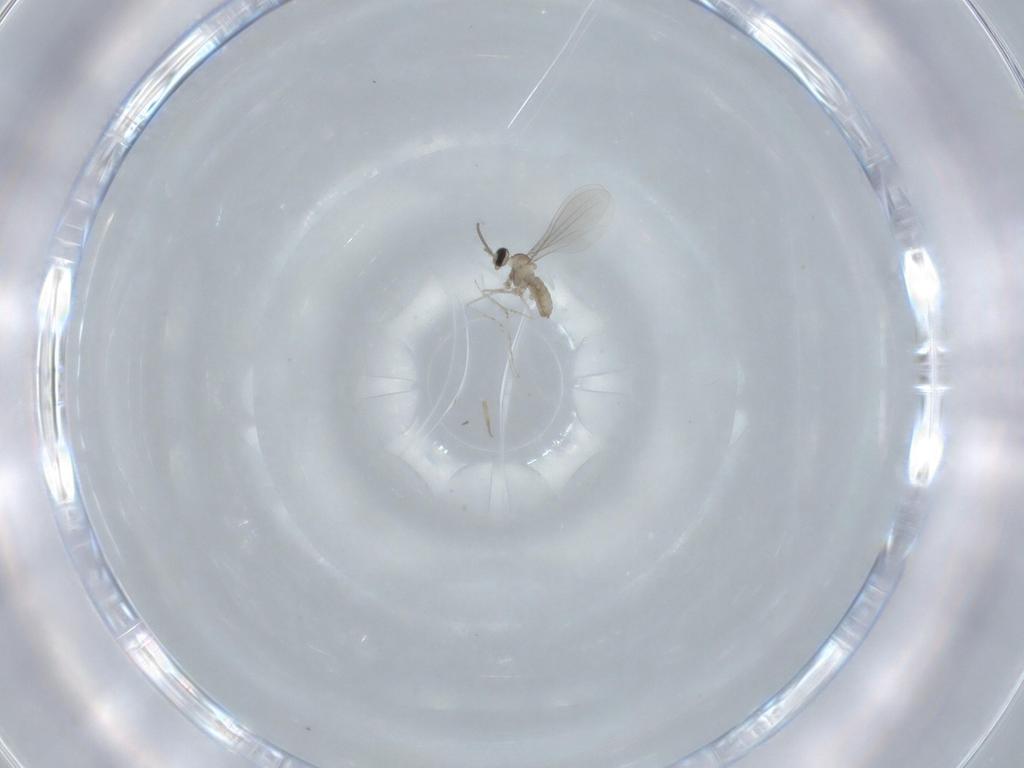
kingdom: Animalia
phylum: Arthropoda
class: Insecta
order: Diptera
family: Cecidomyiidae
